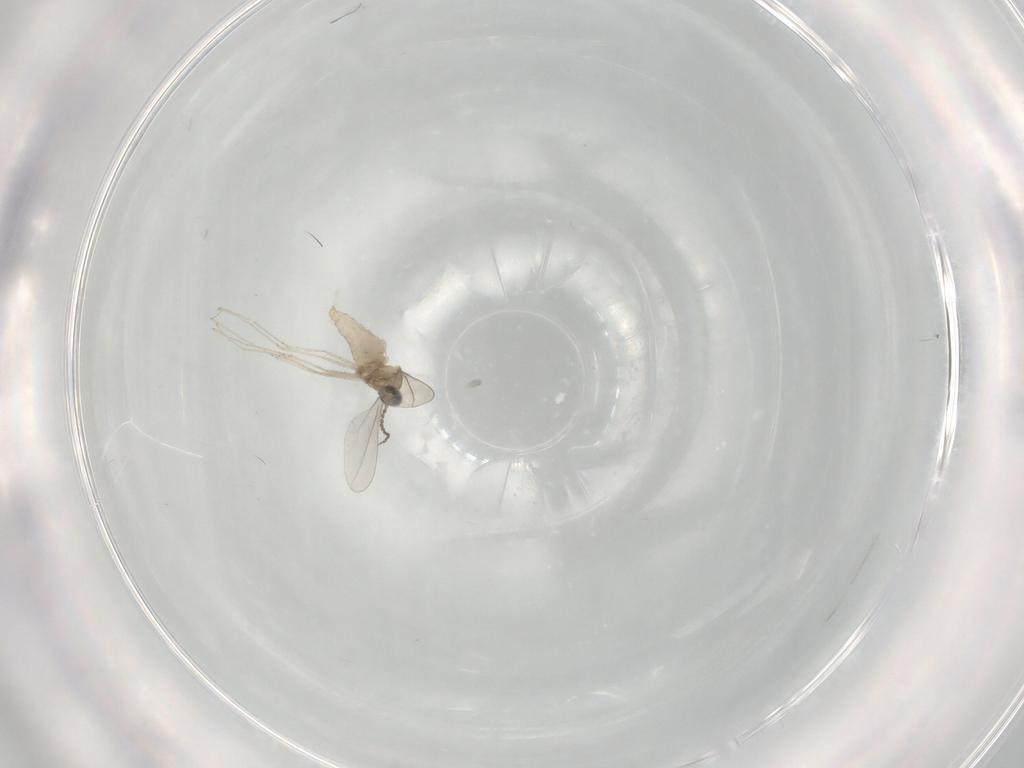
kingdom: Animalia
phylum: Arthropoda
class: Insecta
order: Diptera
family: Cecidomyiidae
